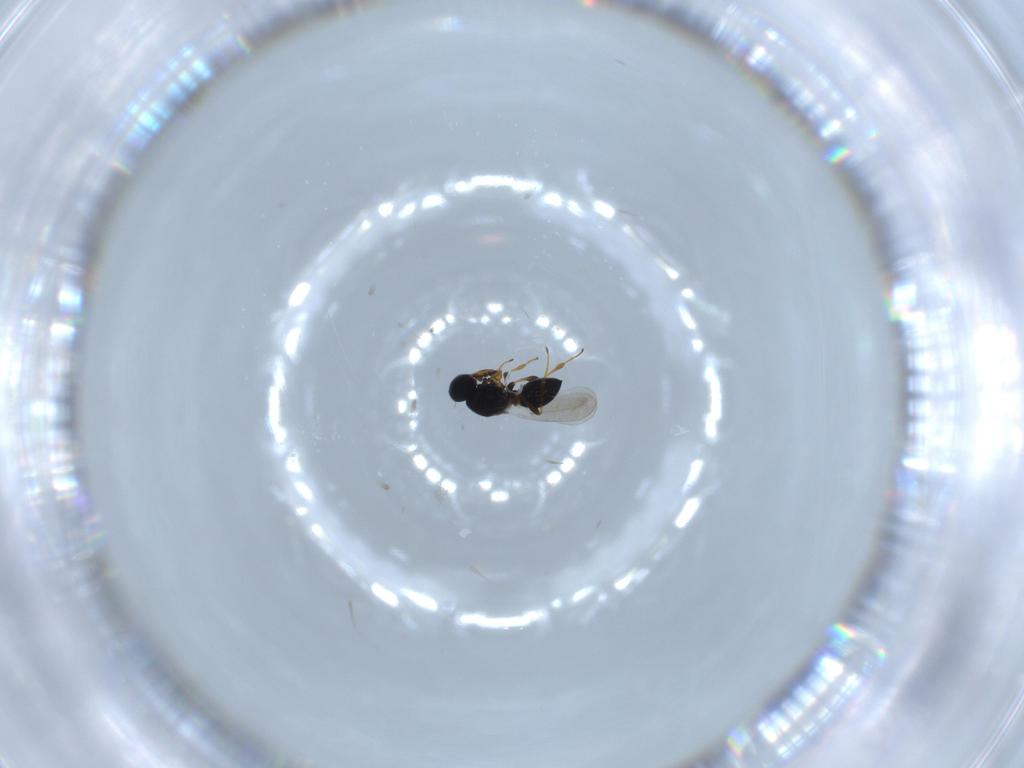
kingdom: Animalia
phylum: Arthropoda
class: Insecta
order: Hymenoptera
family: Platygastridae
